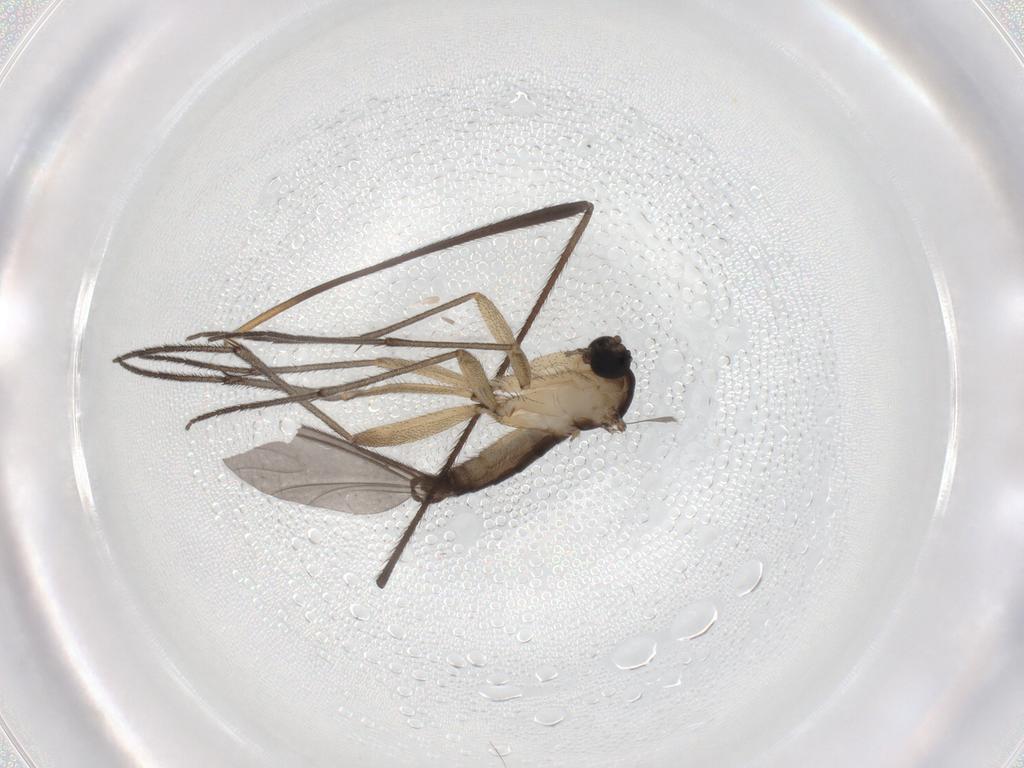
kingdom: Animalia
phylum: Arthropoda
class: Insecta
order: Diptera
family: Sciaridae
